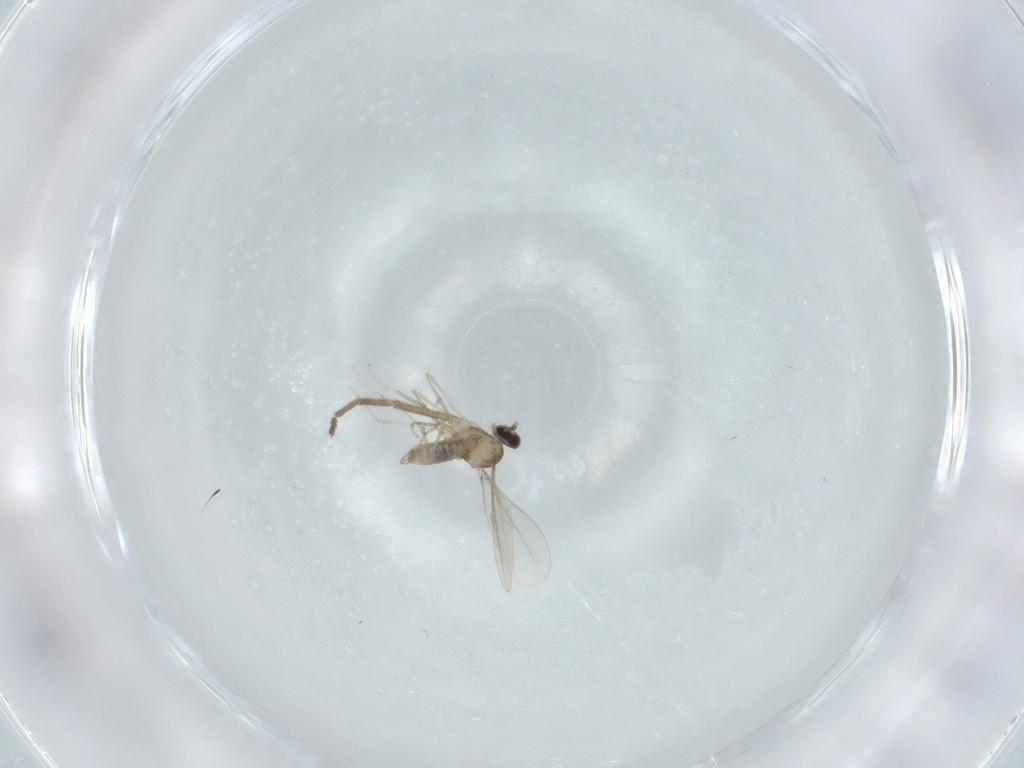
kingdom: Animalia
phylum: Arthropoda
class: Insecta
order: Diptera
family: Cecidomyiidae
